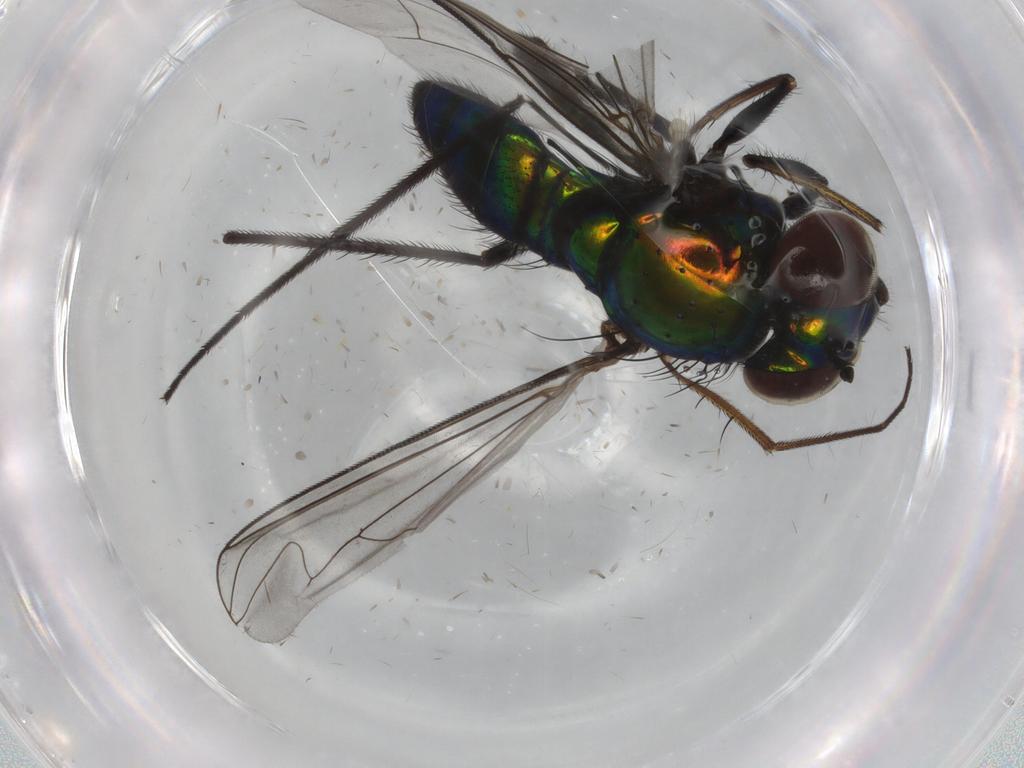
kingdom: Animalia
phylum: Arthropoda
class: Insecta
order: Diptera
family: Dolichopodidae
